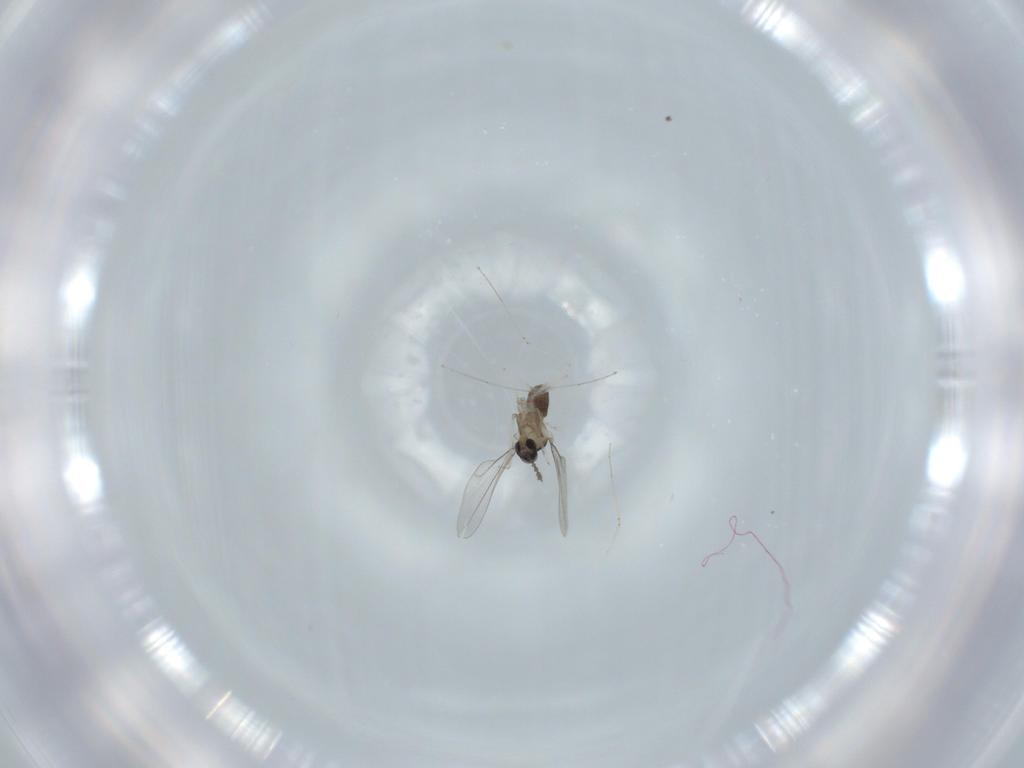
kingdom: Animalia
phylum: Arthropoda
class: Insecta
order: Diptera
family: Cecidomyiidae
